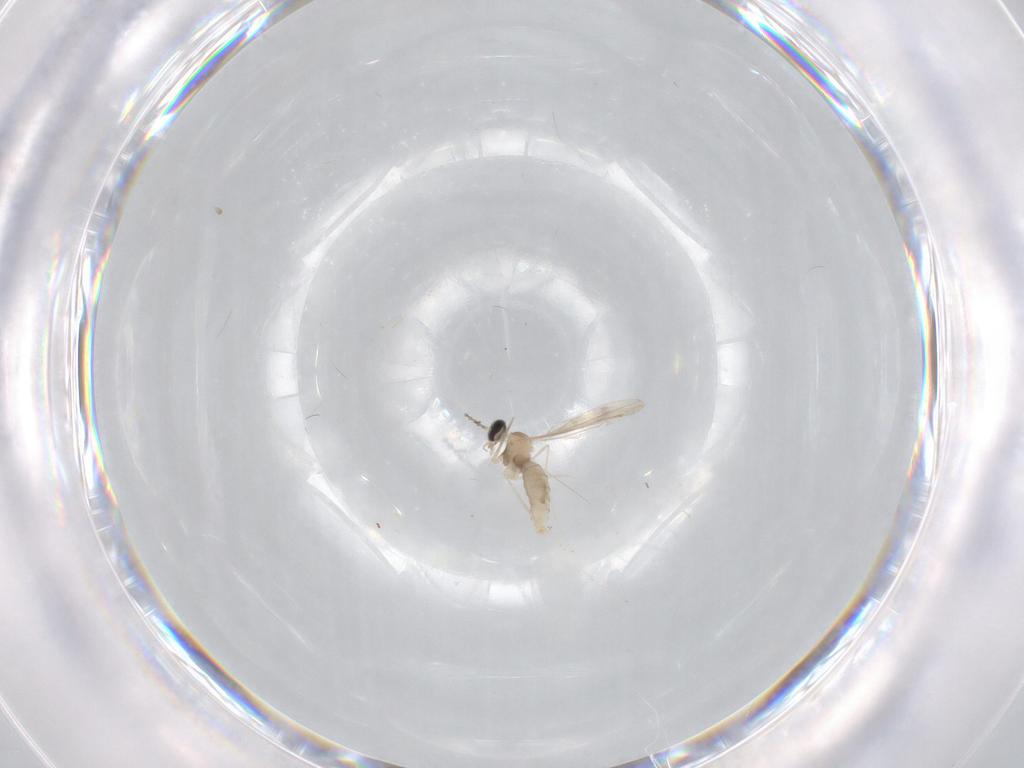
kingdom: Animalia
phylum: Arthropoda
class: Insecta
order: Diptera
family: Cecidomyiidae
